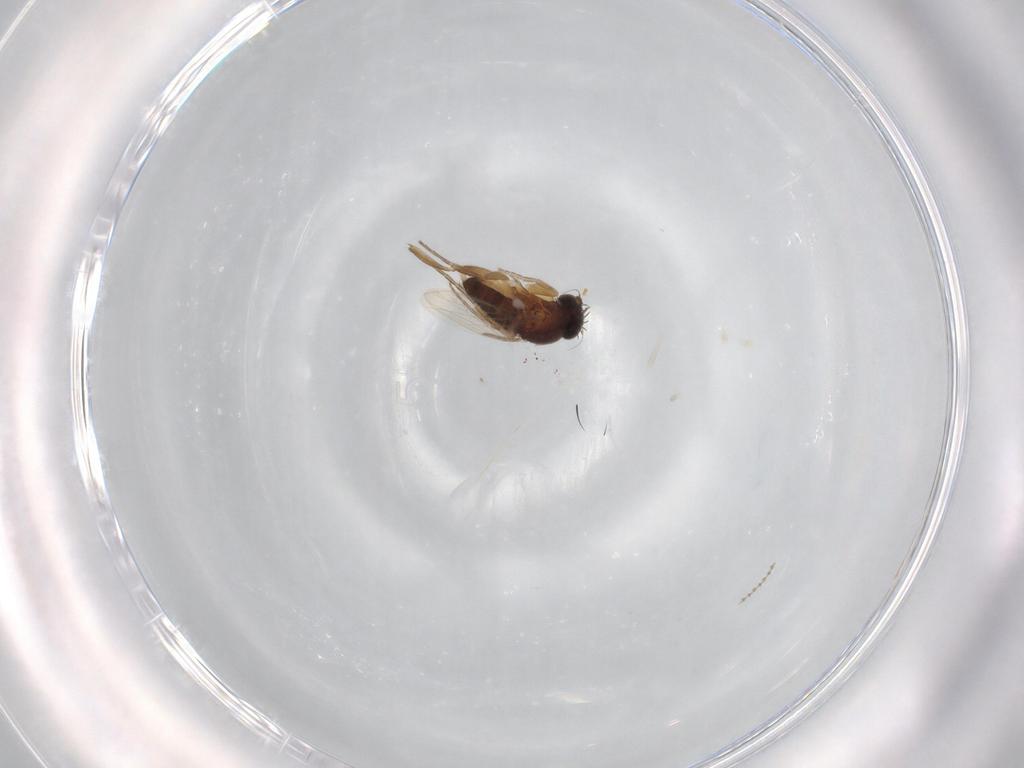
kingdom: Animalia
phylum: Arthropoda
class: Insecta
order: Diptera
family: Phoridae
